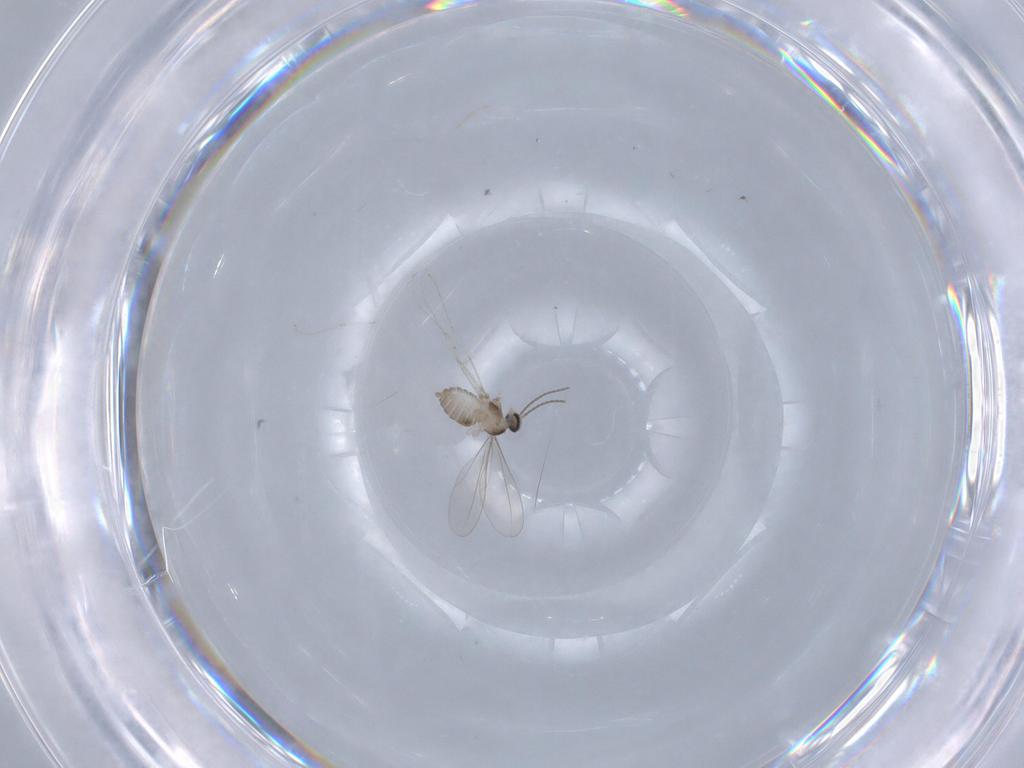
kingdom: Animalia
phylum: Arthropoda
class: Insecta
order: Diptera
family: Cecidomyiidae
